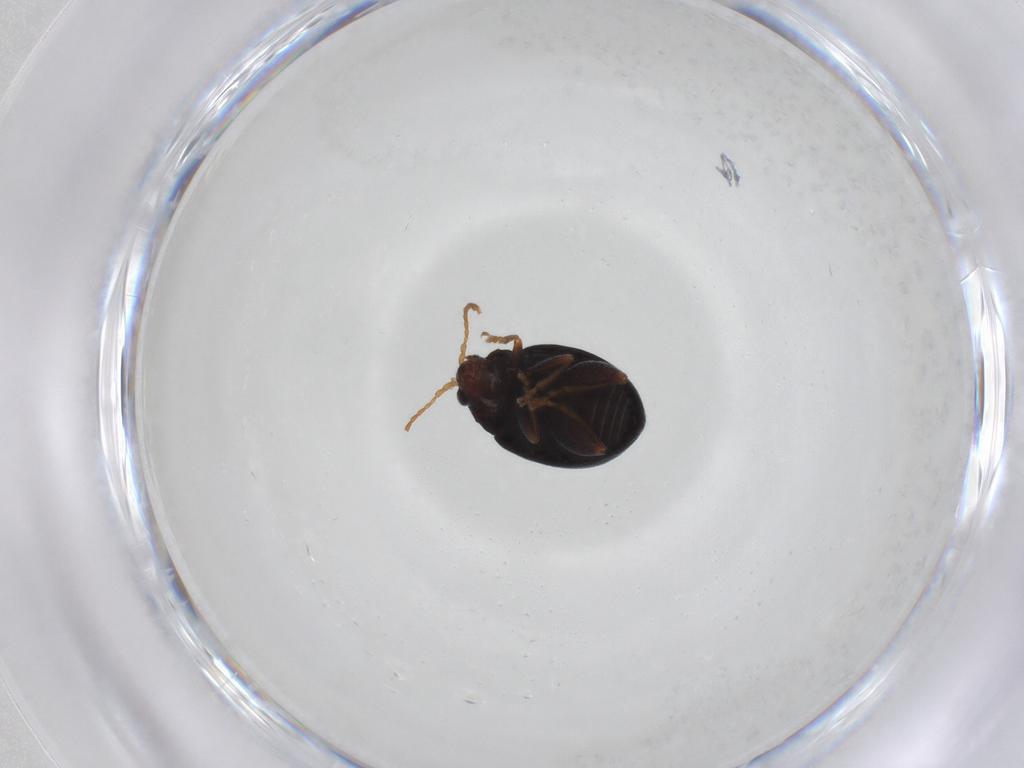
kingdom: Animalia
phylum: Arthropoda
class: Insecta
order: Coleoptera
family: Chrysomelidae
